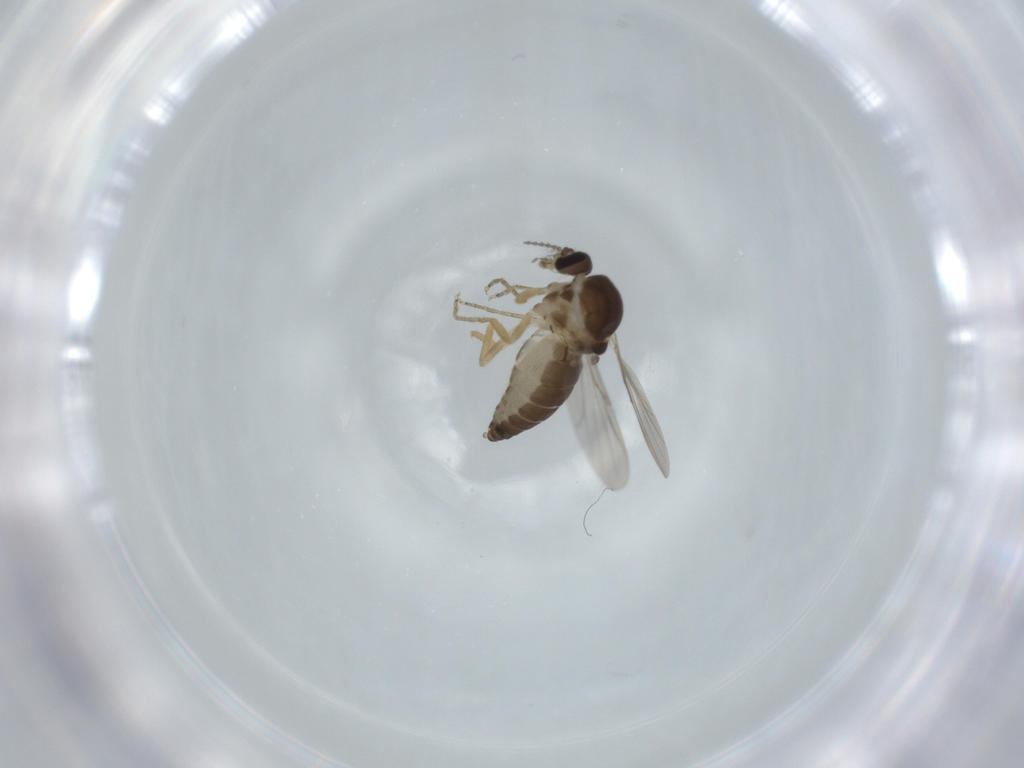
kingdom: Animalia
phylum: Arthropoda
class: Insecta
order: Diptera
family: Ceratopogonidae
